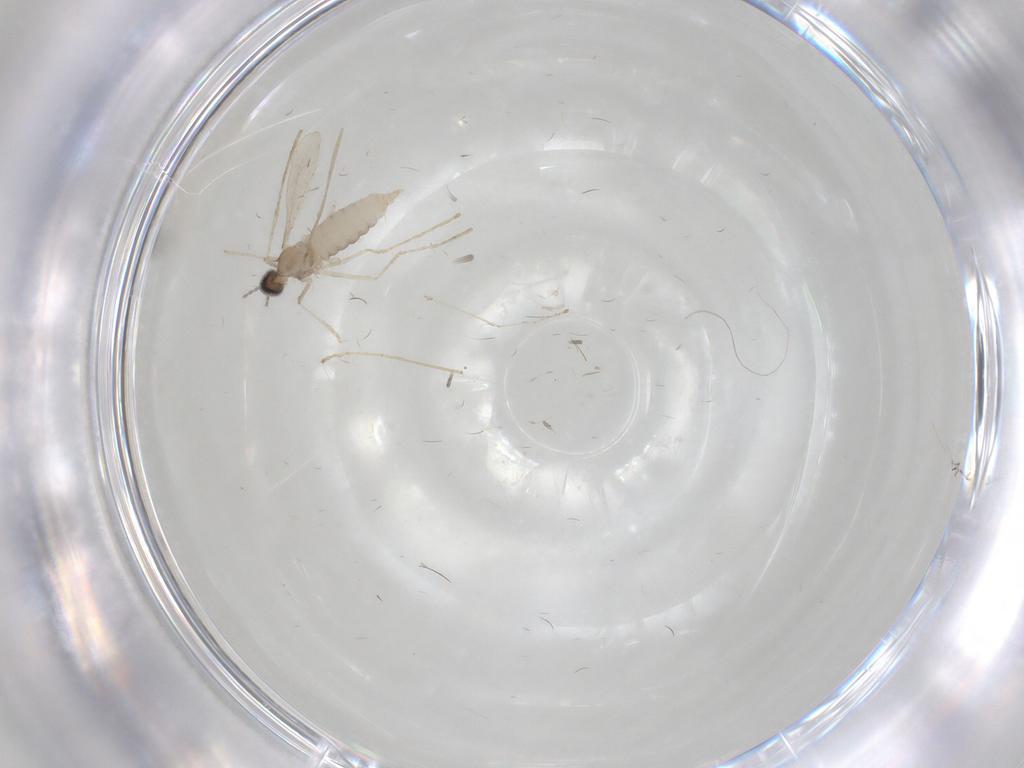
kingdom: Animalia
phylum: Arthropoda
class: Insecta
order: Diptera
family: Cecidomyiidae
